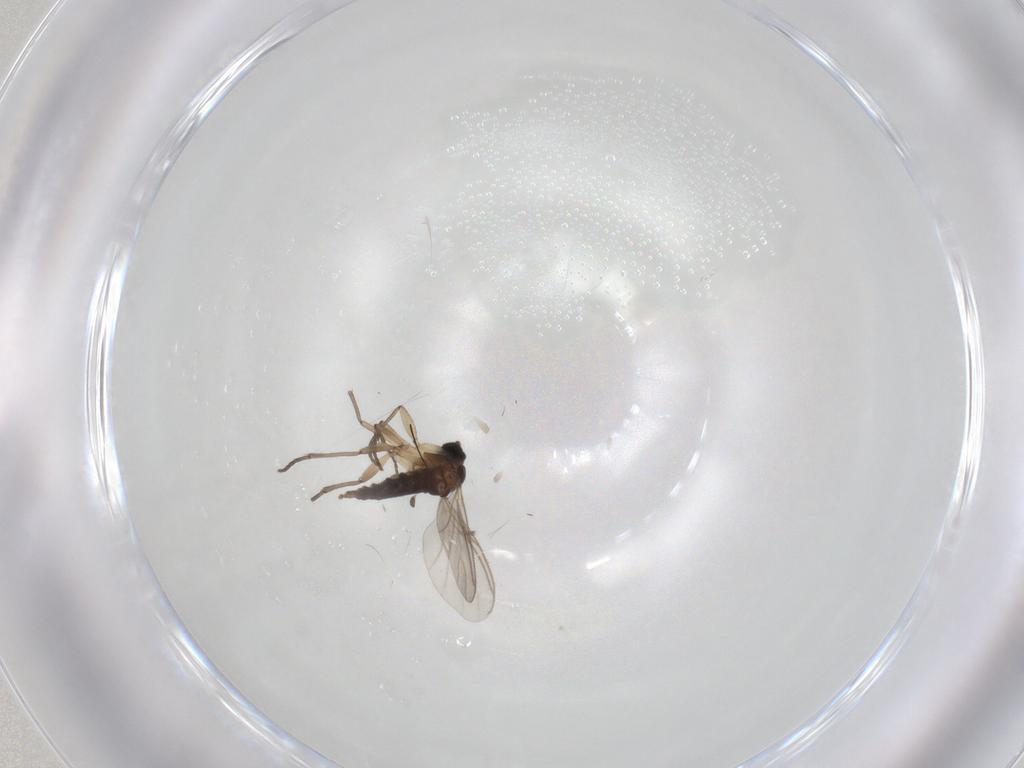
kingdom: Animalia
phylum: Arthropoda
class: Insecta
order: Diptera
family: Sciaridae
